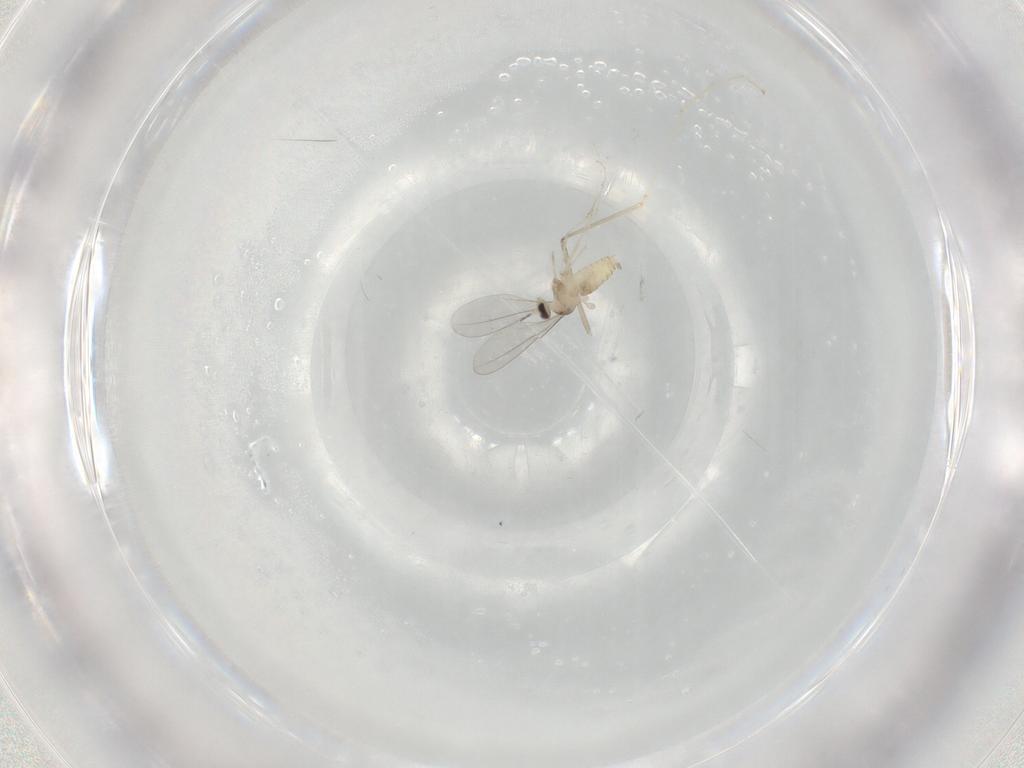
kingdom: Animalia
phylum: Arthropoda
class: Insecta
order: Diptera
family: Cecidomyiidae
